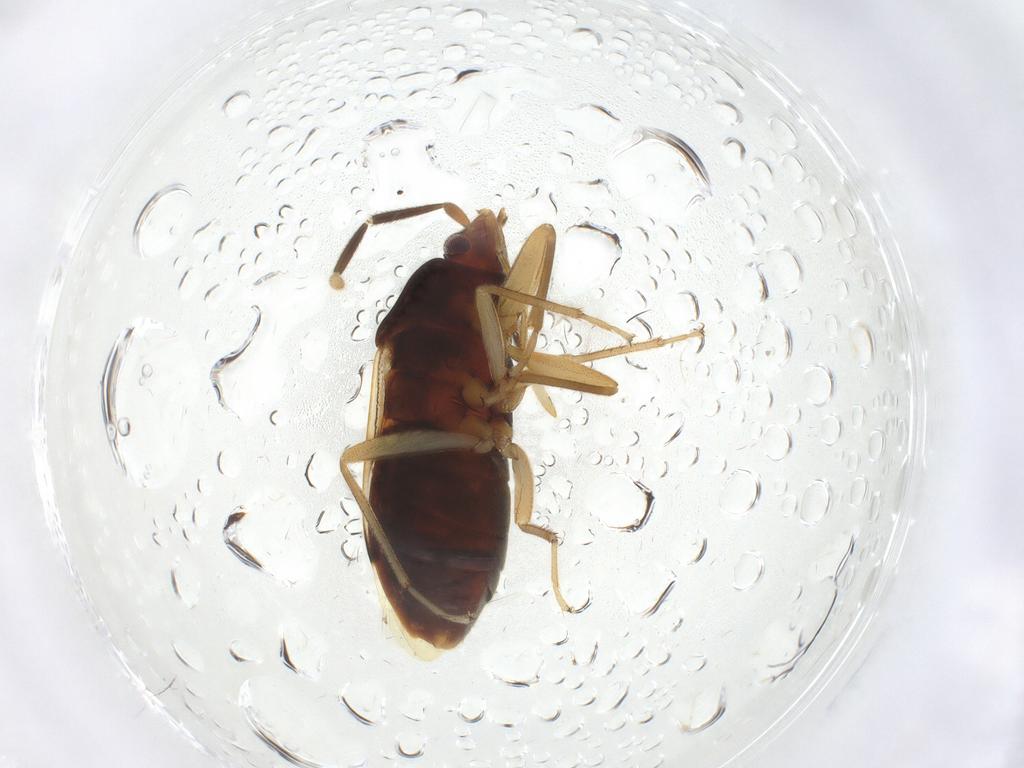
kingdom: Animalia
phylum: Arthropoda
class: Insecta
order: Hemiptera
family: Rhyparochromidae
